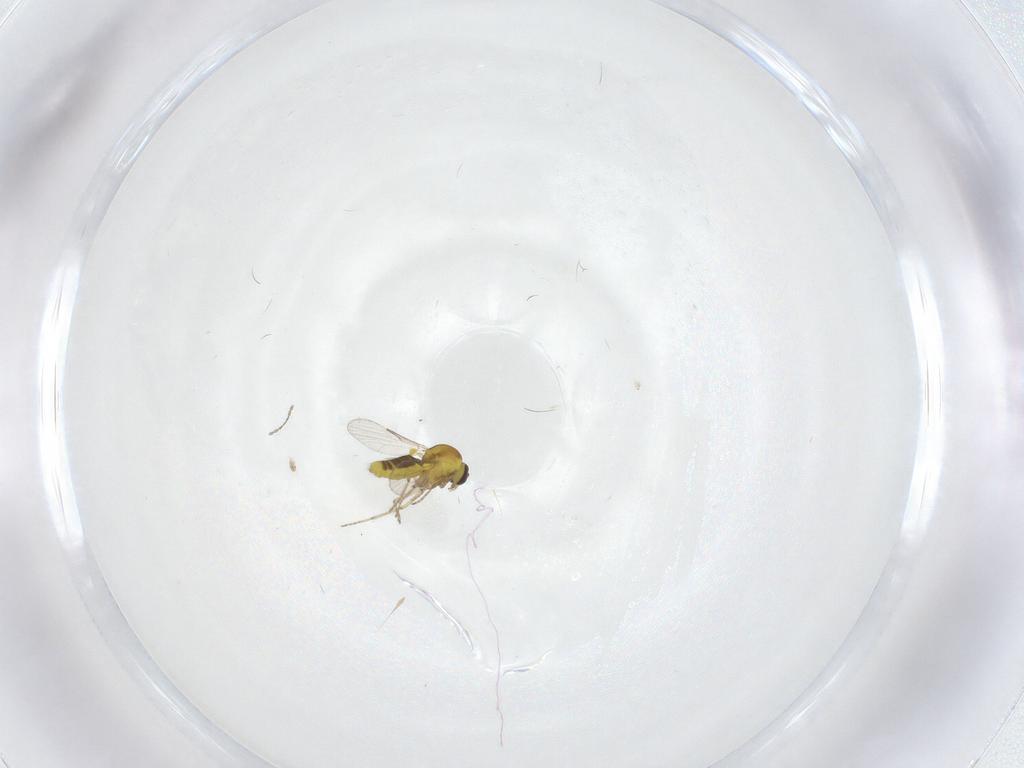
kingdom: Animalia
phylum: Arthropoda
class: Insecta
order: Diptera
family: Ceratopogonidae
